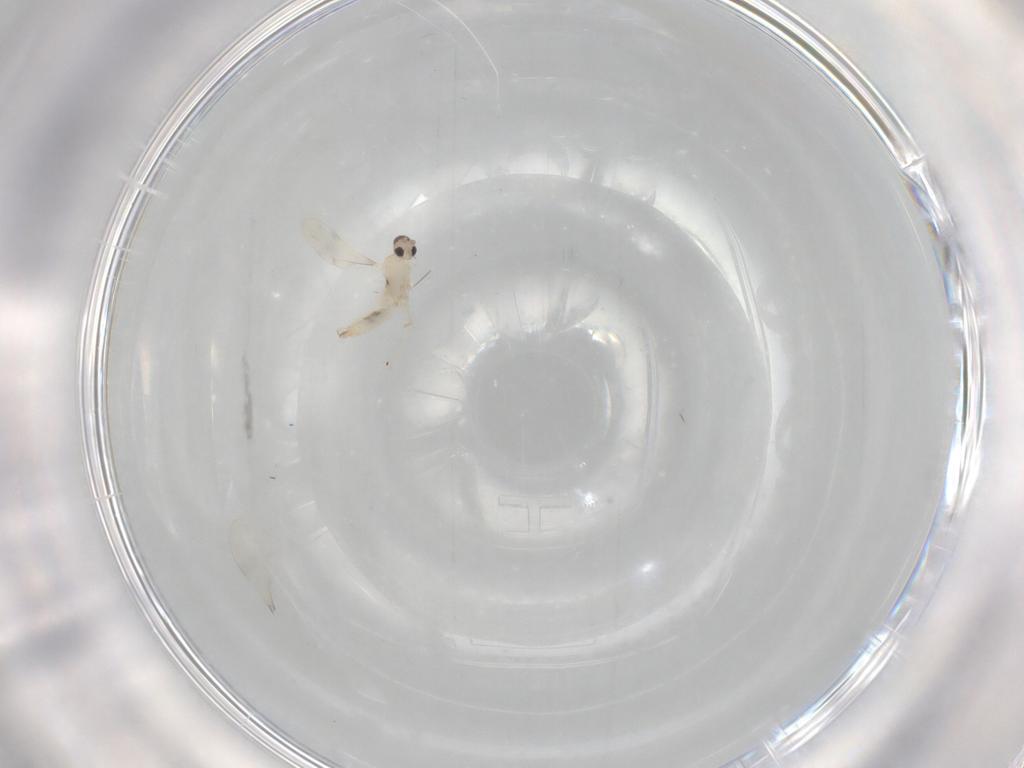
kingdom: Animalia
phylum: Arthropoda
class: Insecta
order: Diptera
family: Cecidomyiidae
